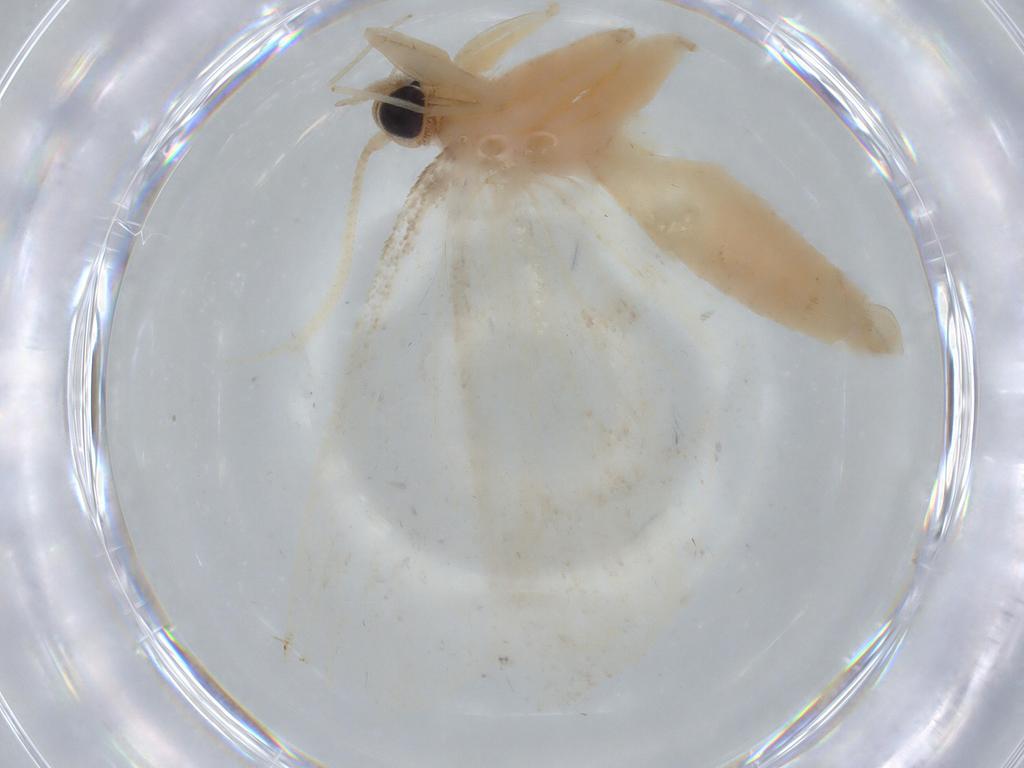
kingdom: Animalia
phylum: Arthropoda
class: Insecta
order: Lepidoptera
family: Crambidae
